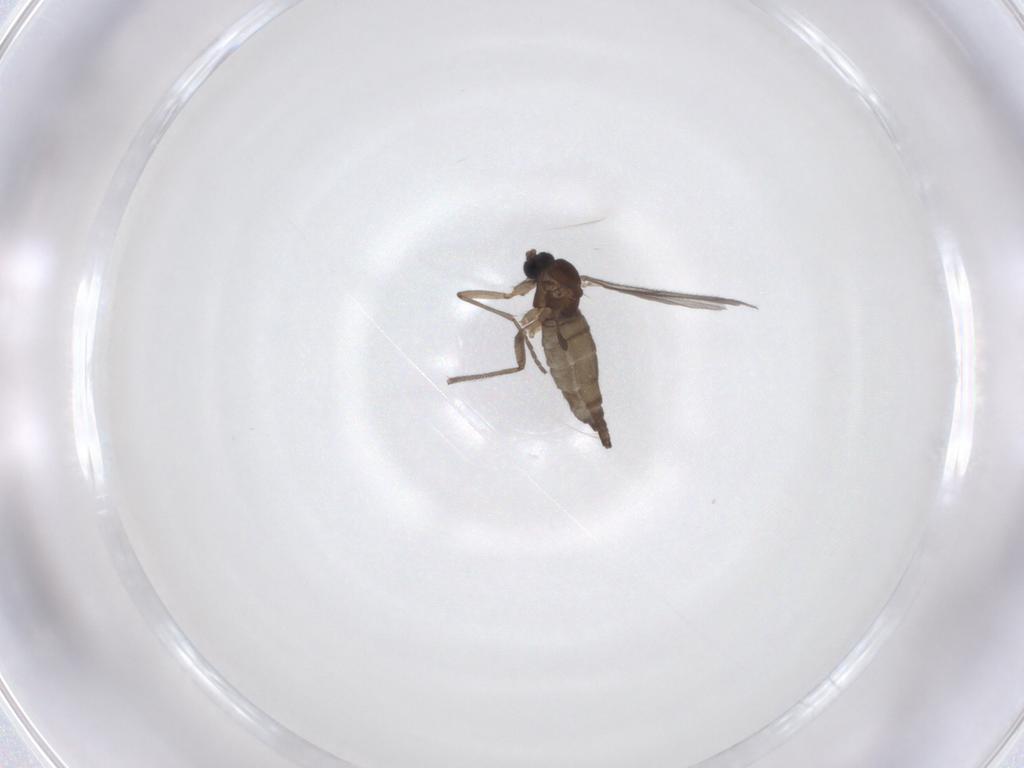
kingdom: Animalia
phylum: Arthropoda
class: Insecta
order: Diptera
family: Sciaridae
